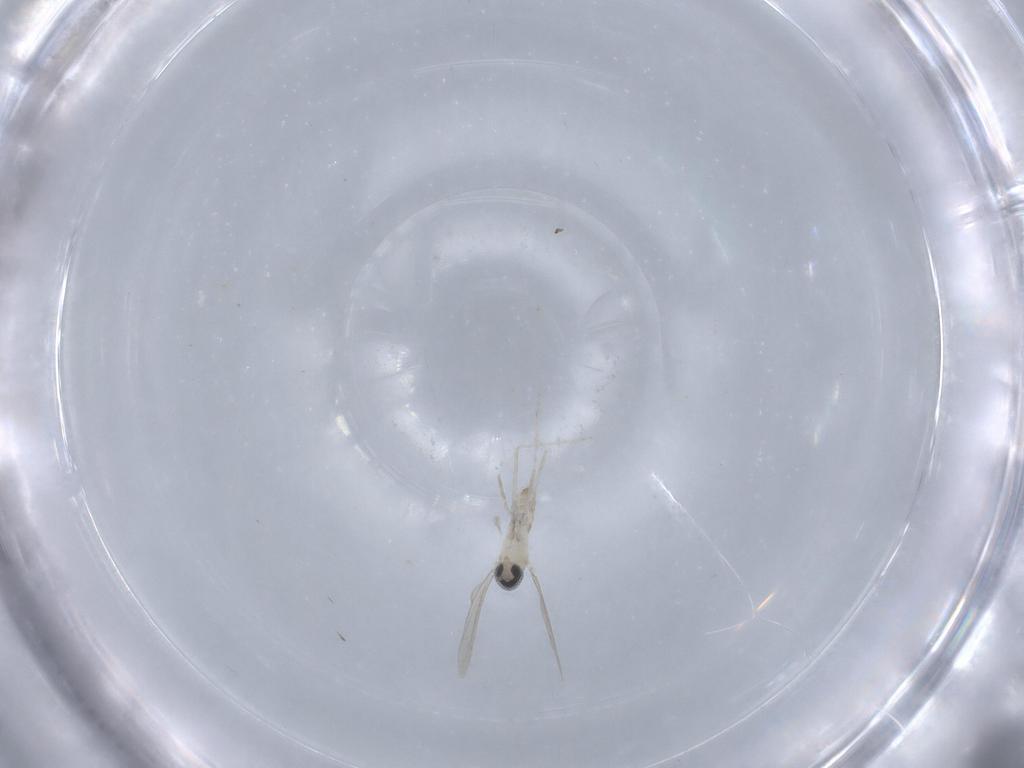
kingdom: Animalia
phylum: Arthropoda
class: Insecta
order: Diptera
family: Cecidomyiidae
